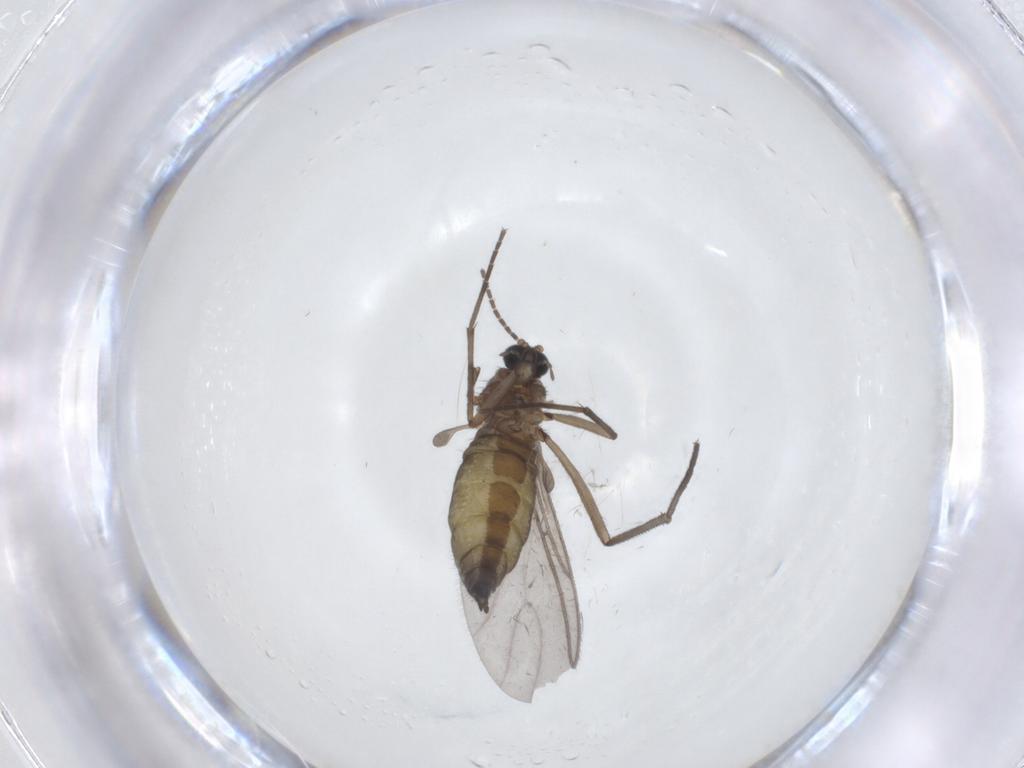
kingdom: Animalia
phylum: Arthropoda
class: Insecta
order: Diptera
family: Sciaridae
